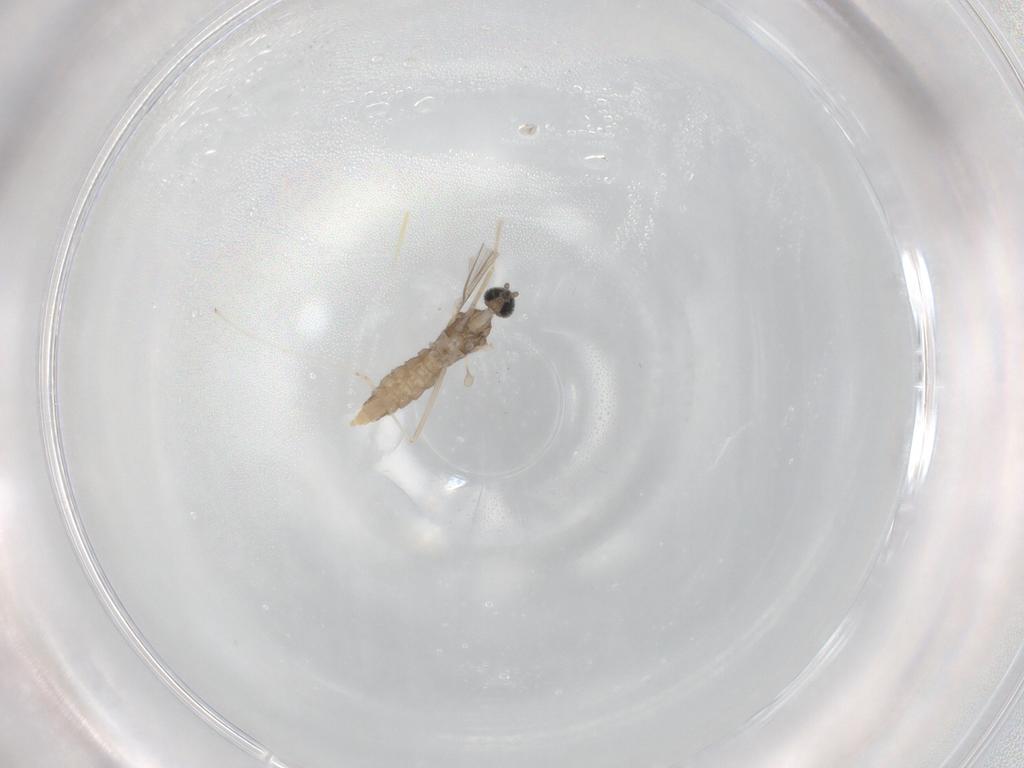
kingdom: Animalia
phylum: Arthropoda
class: Insecta
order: Diptera
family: Cecidomyiidae
